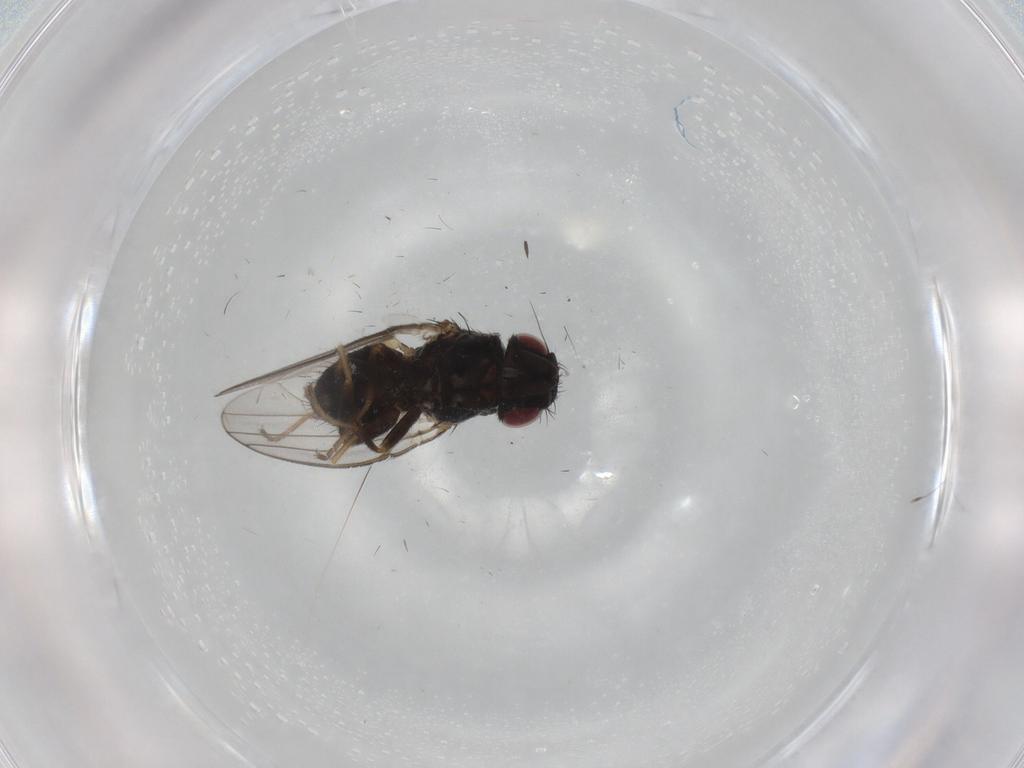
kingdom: Animalia
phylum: Arthropoda
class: Insecta
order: Diptera
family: Milichiidae
